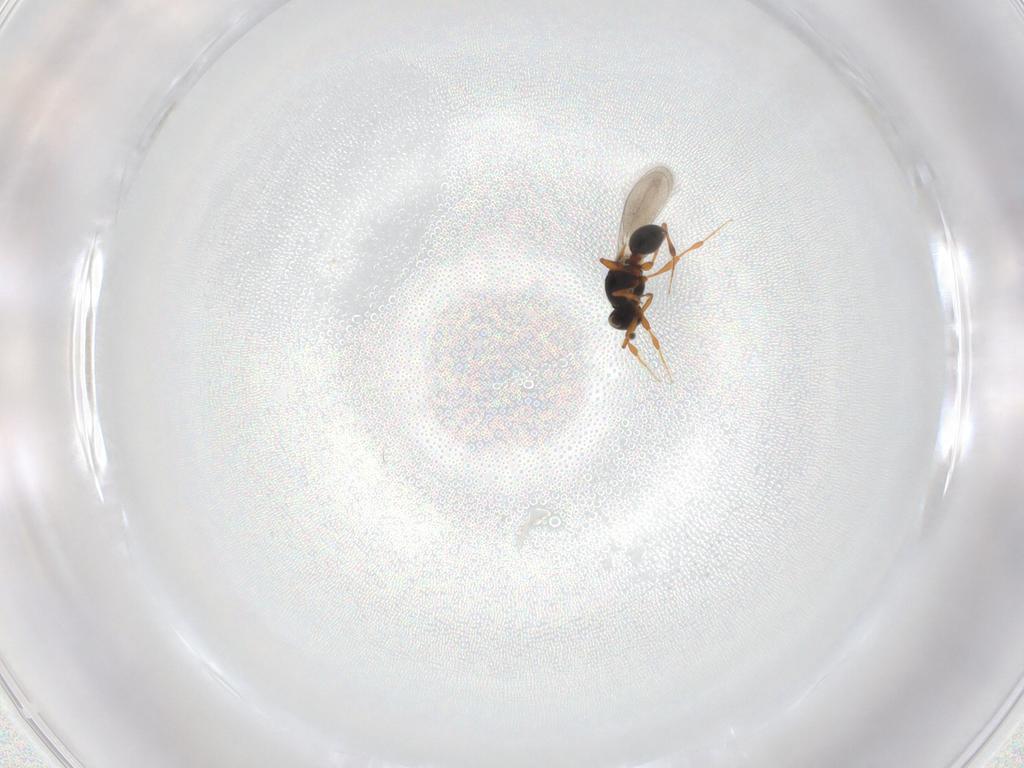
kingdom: Animalia
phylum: Arthropoda
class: Insecta
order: Hymenoptera
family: Platygastridae
